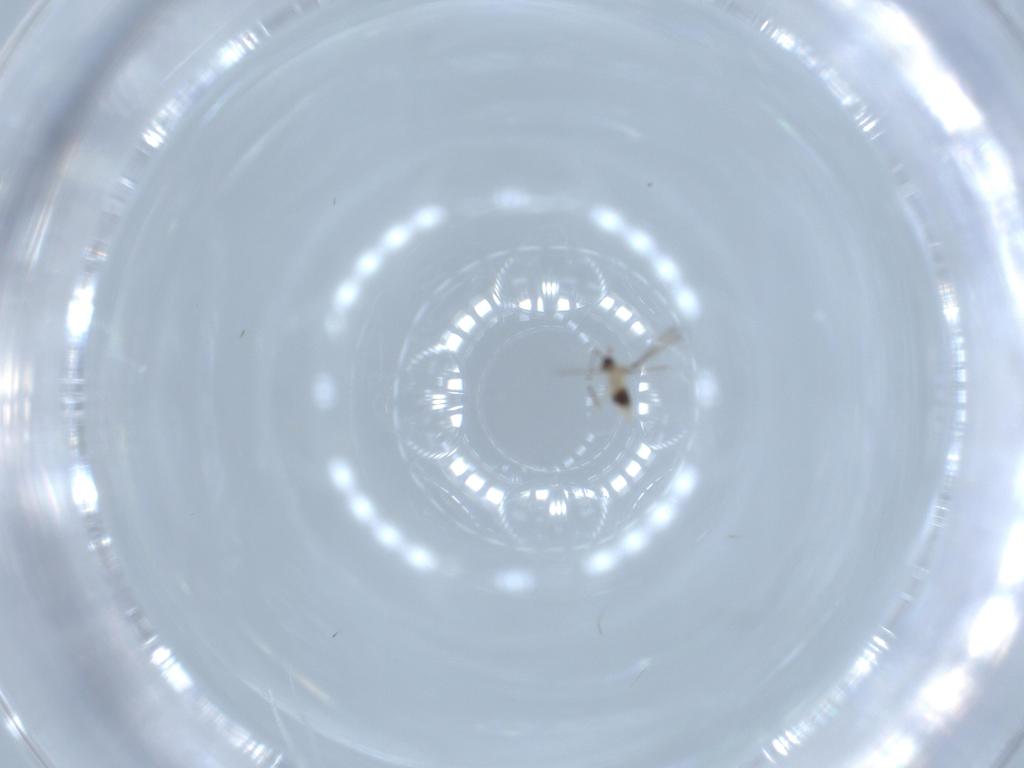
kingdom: Animalia
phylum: Arthropoda
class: Insecta
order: Hymenoptera
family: Mymaridae
